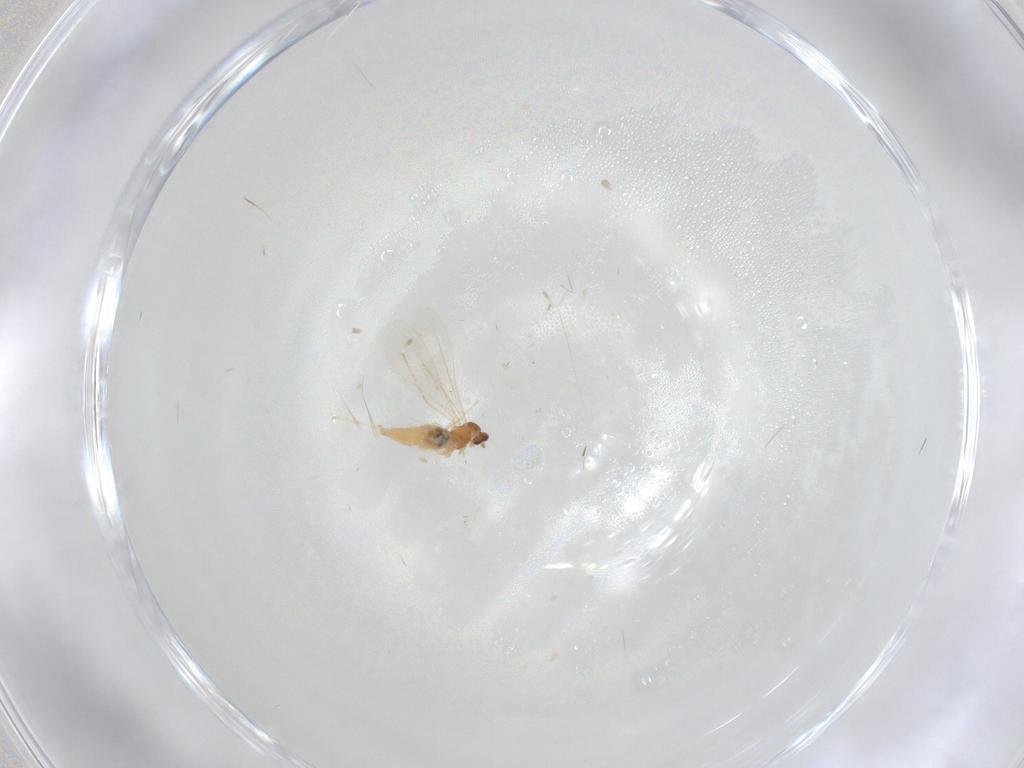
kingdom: Animalia
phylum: Arthropoda
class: Insecta
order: Diptera
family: Cecidomyiidae
